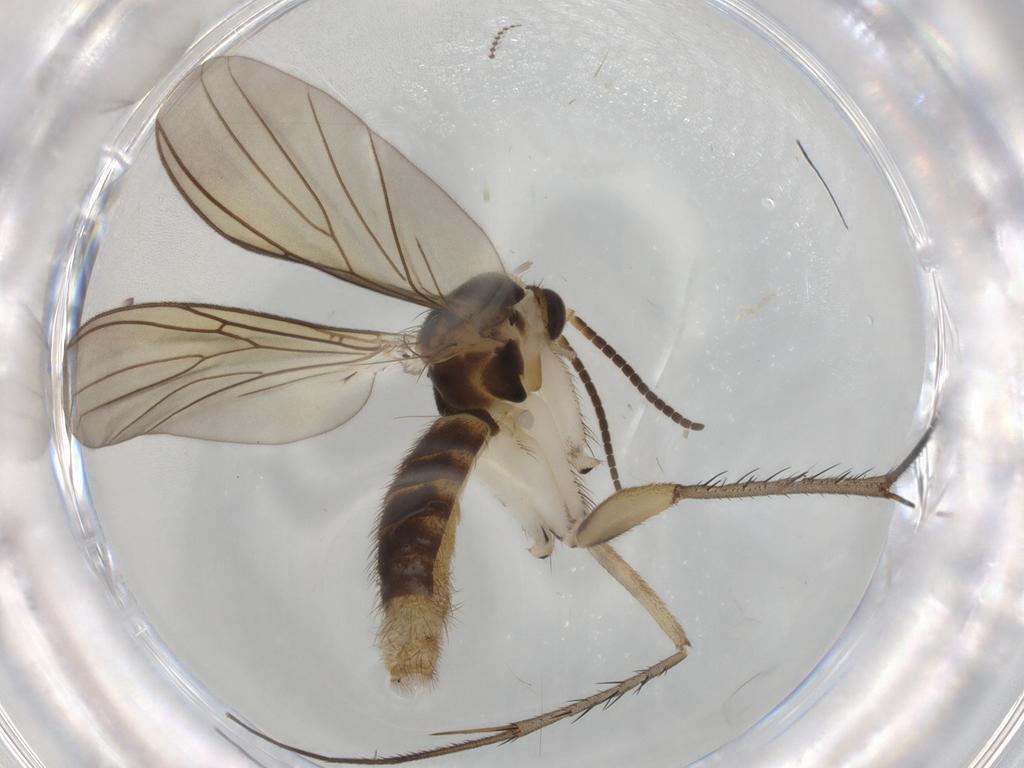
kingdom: Animalia
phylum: Arthropoda
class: Insecta
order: Diptera
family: Mycetophilidae
